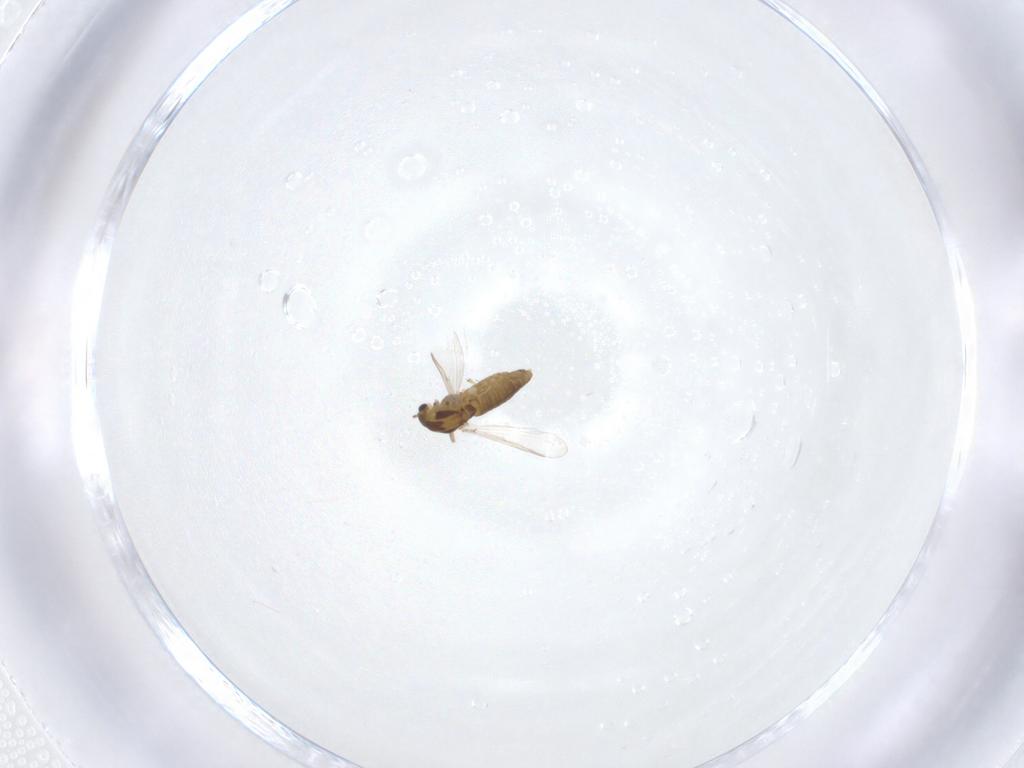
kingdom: Animalia
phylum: Arthropoda
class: Insecta
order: Diptera
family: Chironomidae
